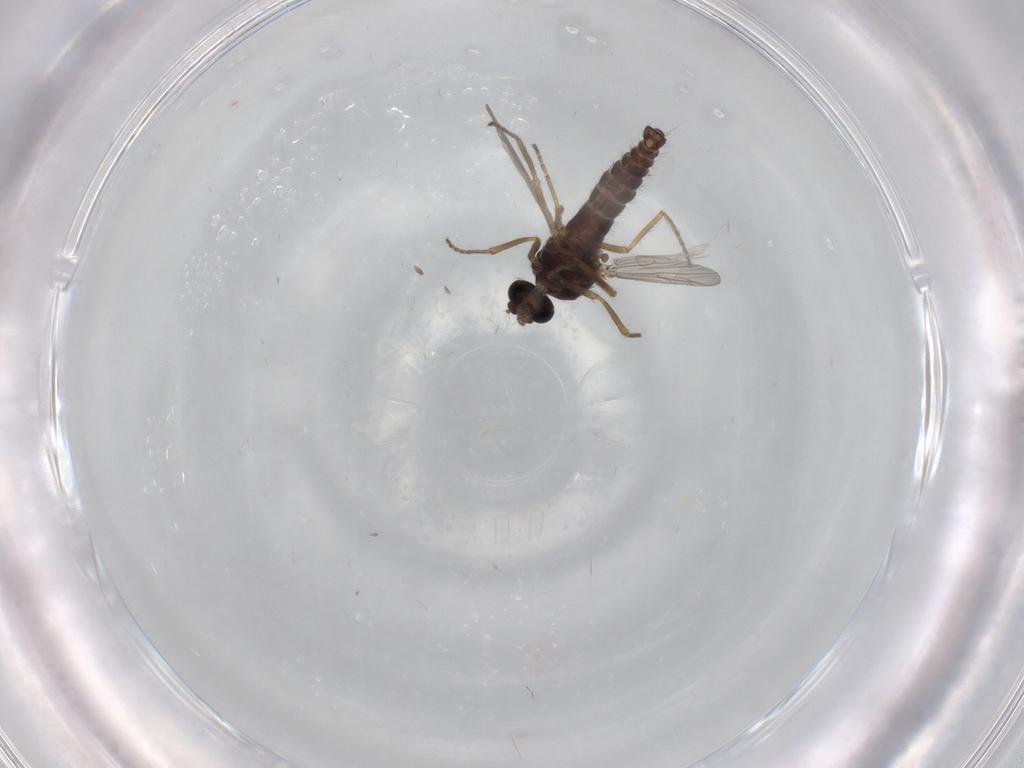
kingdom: Animalia
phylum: Arthropoda
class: Insecta
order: Diptera
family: Ceratopogonidae
